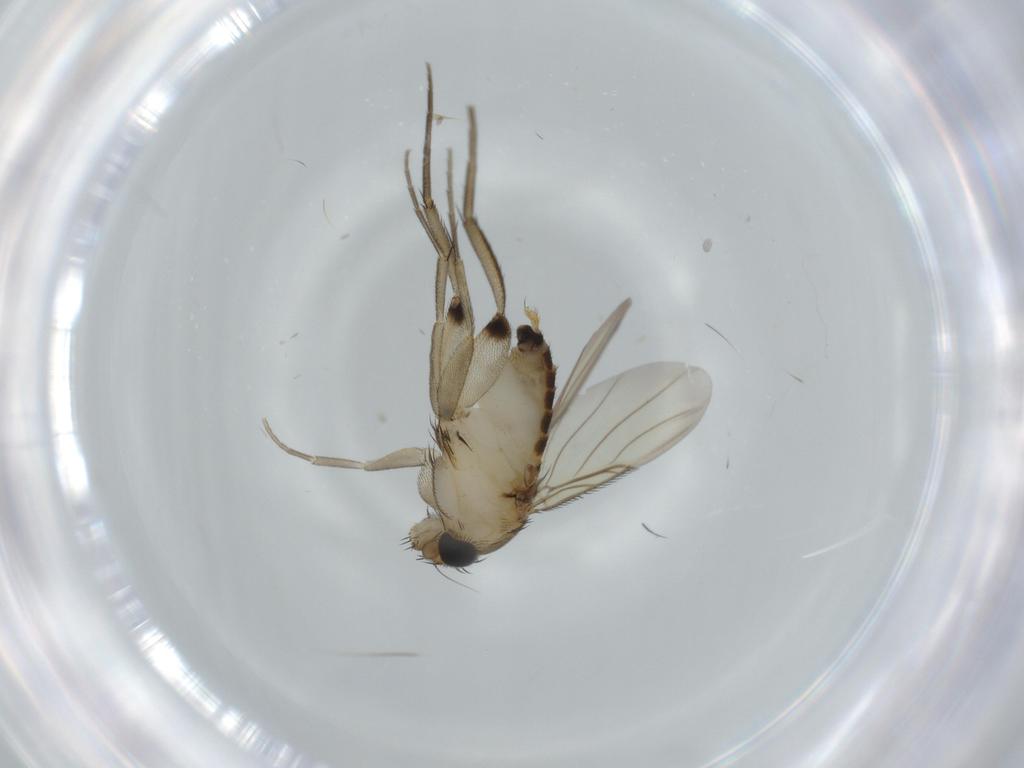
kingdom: Animalia
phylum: Arthropoda
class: Insecta
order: Diptera
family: Phoridae
